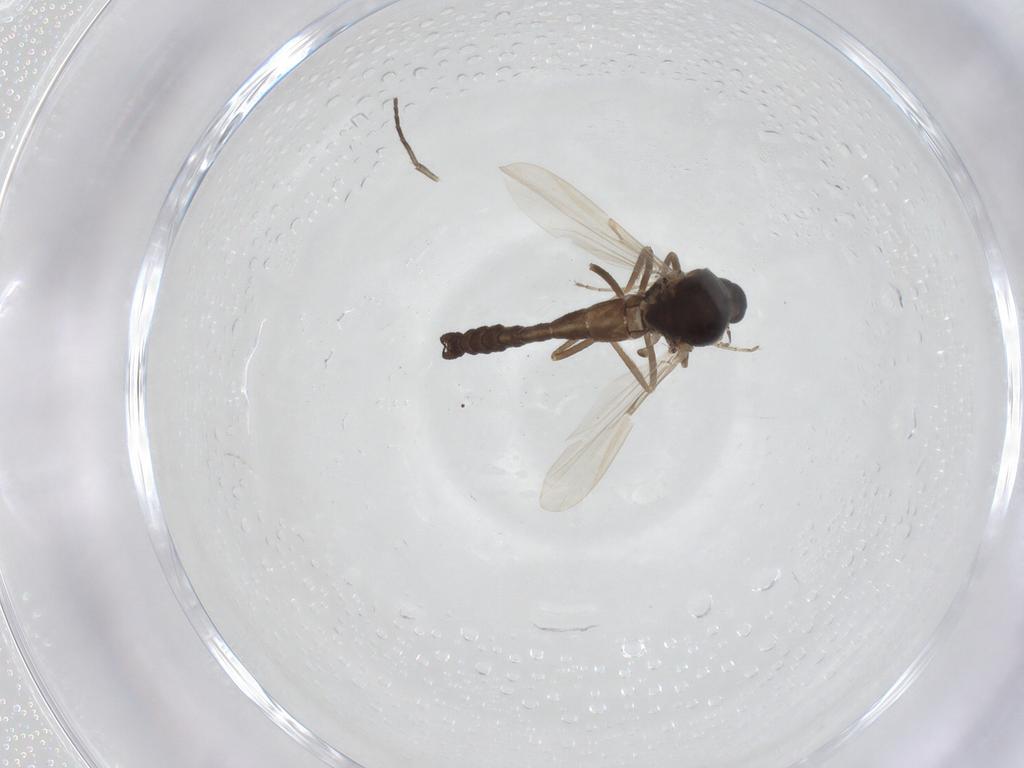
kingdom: Animalia
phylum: Arthropoda
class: Insecta
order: Diptera
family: Ceratopogonidae
